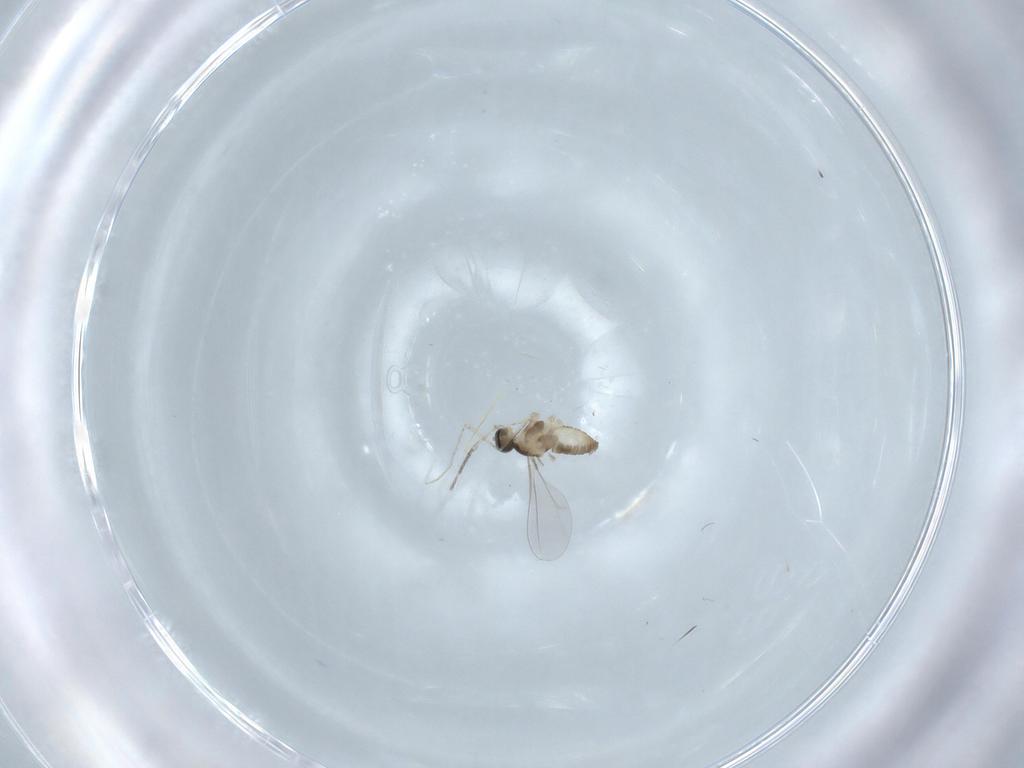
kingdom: Animalia
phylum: Arthropoda
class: Insecta
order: Diptera
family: Cecidomyiidae
